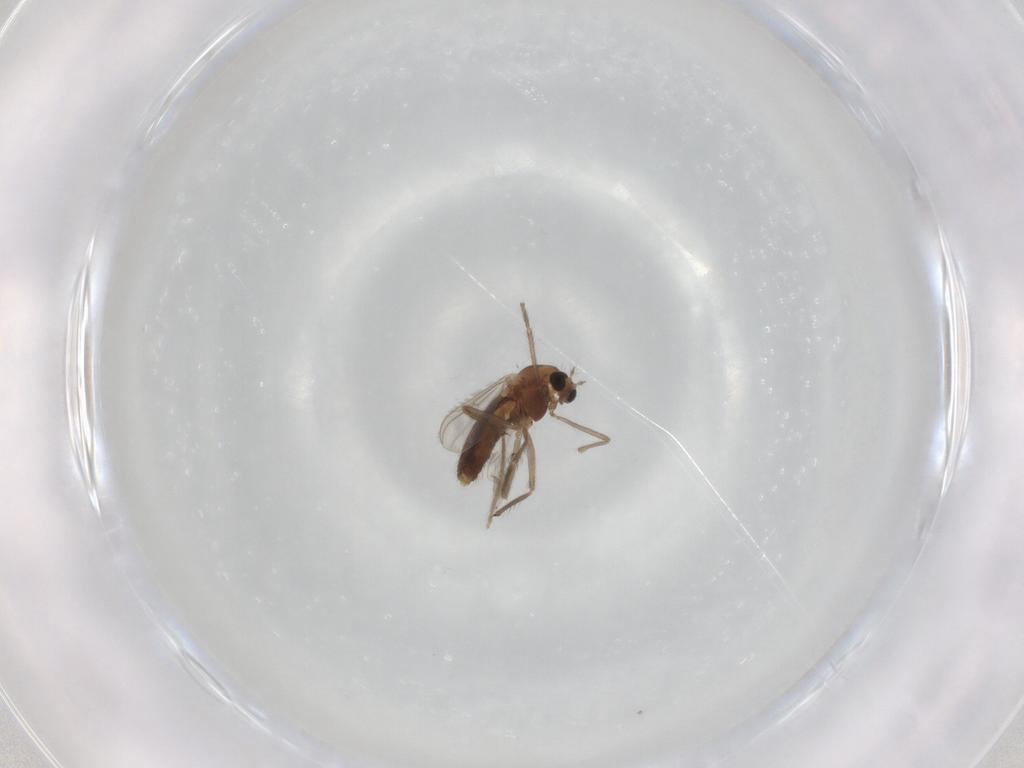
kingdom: Animalia
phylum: Arthropoda
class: Insecta
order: Diptera
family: Chironomidae
